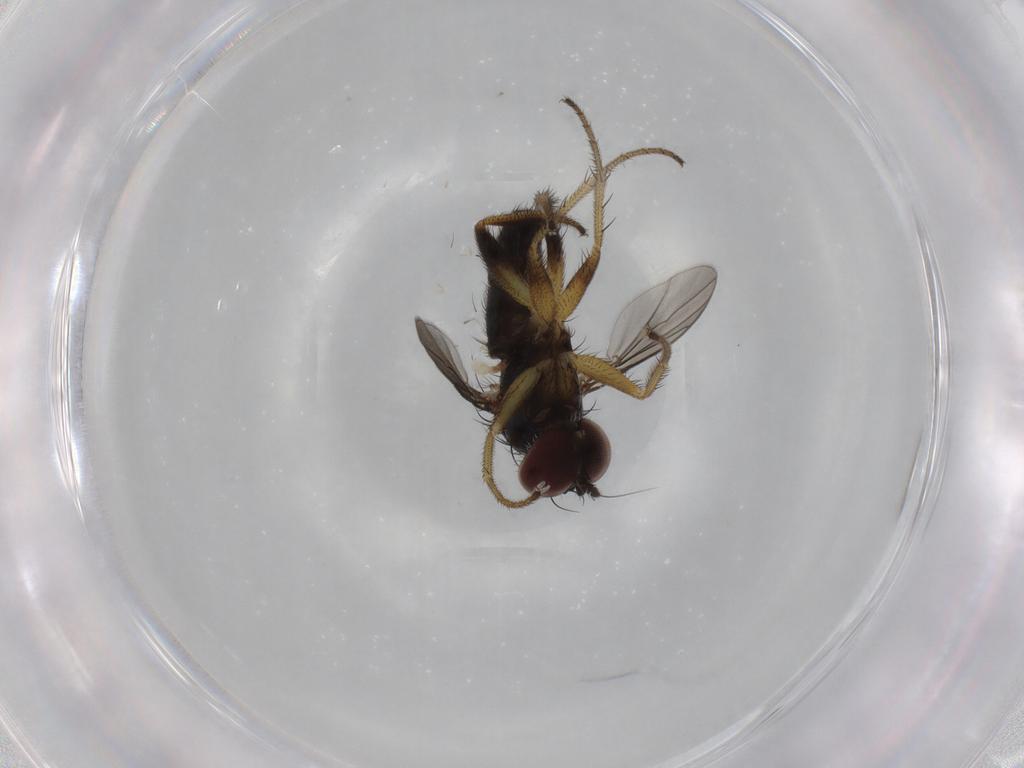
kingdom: Animalia
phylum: Arthropoda
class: Insecta
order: Diptera
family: Dolichopodidae
